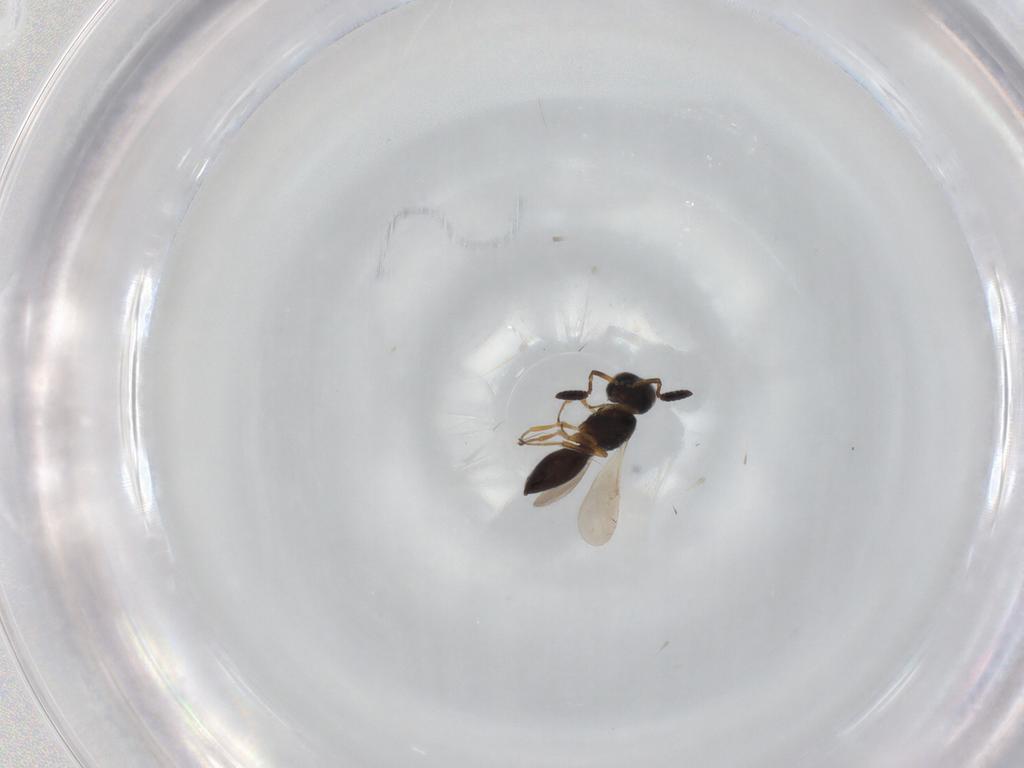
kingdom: Animalia
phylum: Arthropoda
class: Insecta
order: Hymenoptera
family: Scelionidae
